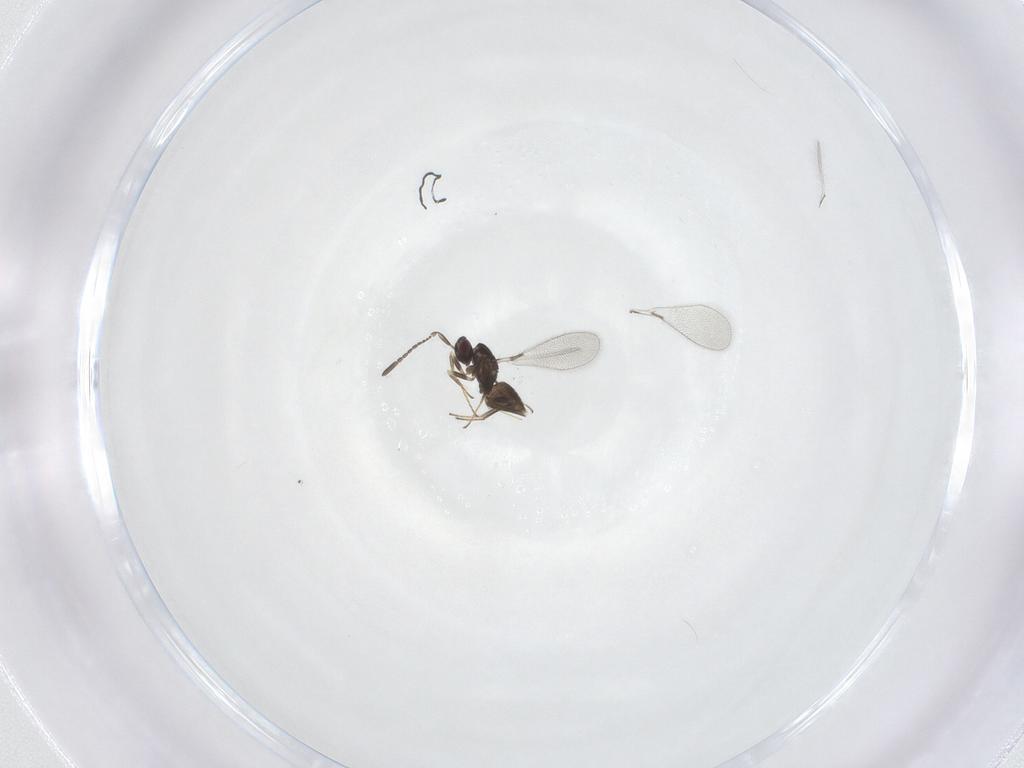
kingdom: Animalia
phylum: Arthropoda
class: Insecta
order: Hymenoptera
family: Mymaridae
